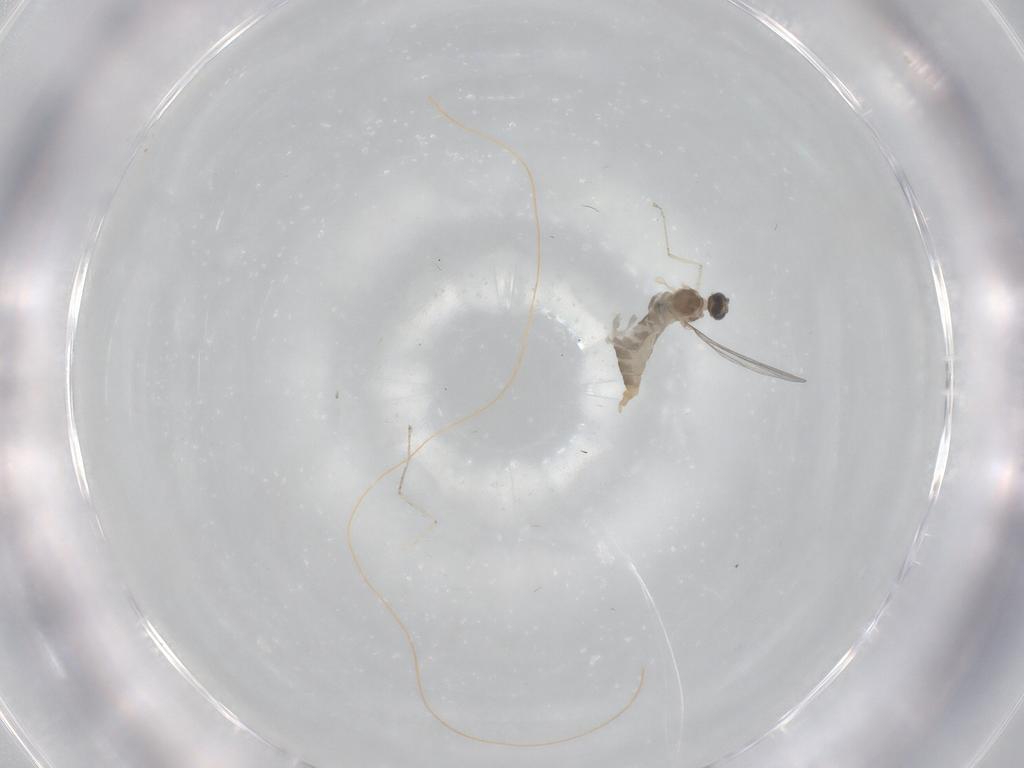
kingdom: Animalia
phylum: Arthropoda
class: Insecta
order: Diptera
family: Cecidomyiidae
